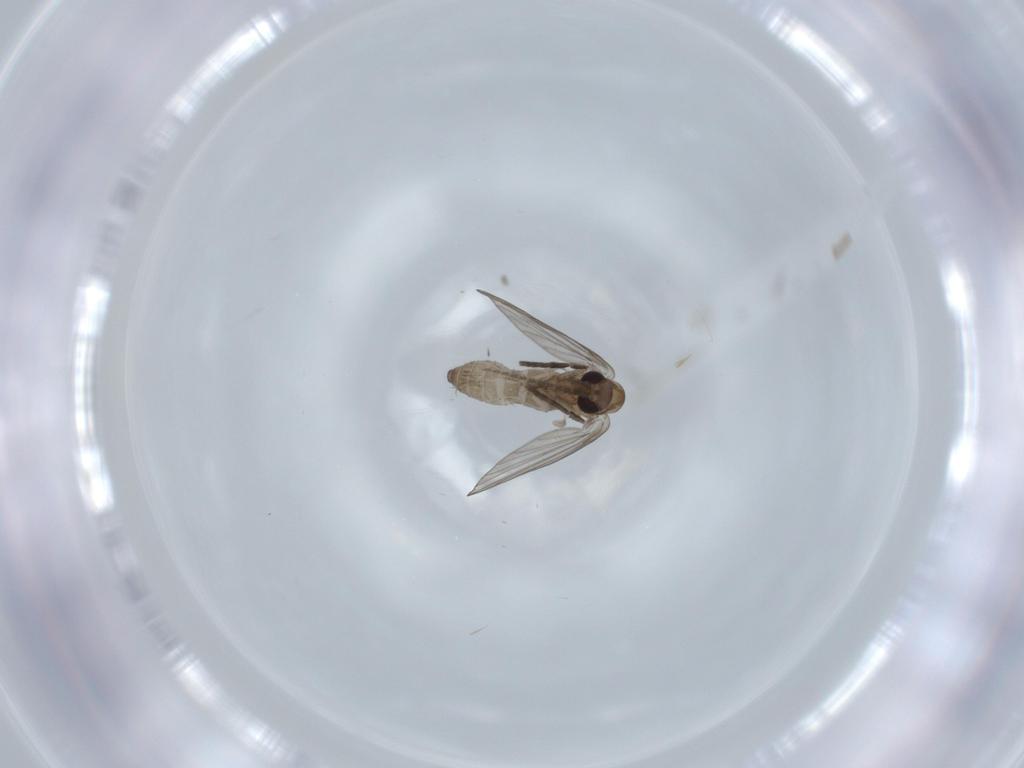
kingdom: Animalia
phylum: Arthropoda
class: Insecta
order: Diptera
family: Psychodidae
